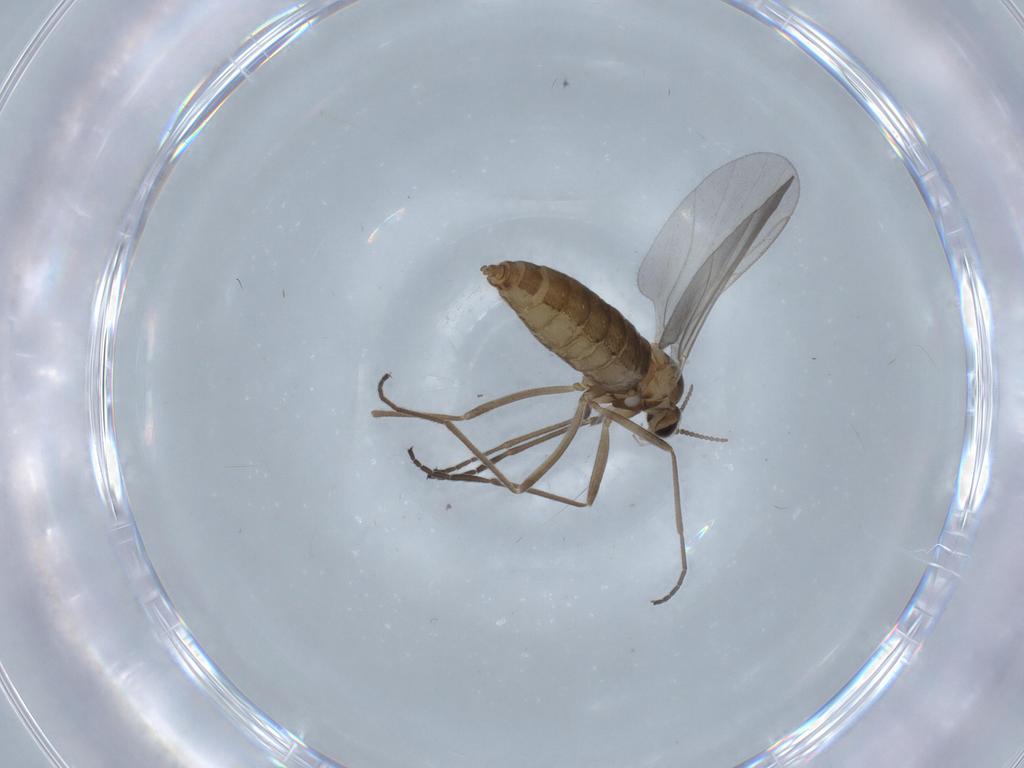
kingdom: Animalia
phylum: Arthropoda
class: Insecta
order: Diptera
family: Cecidomyiidae
